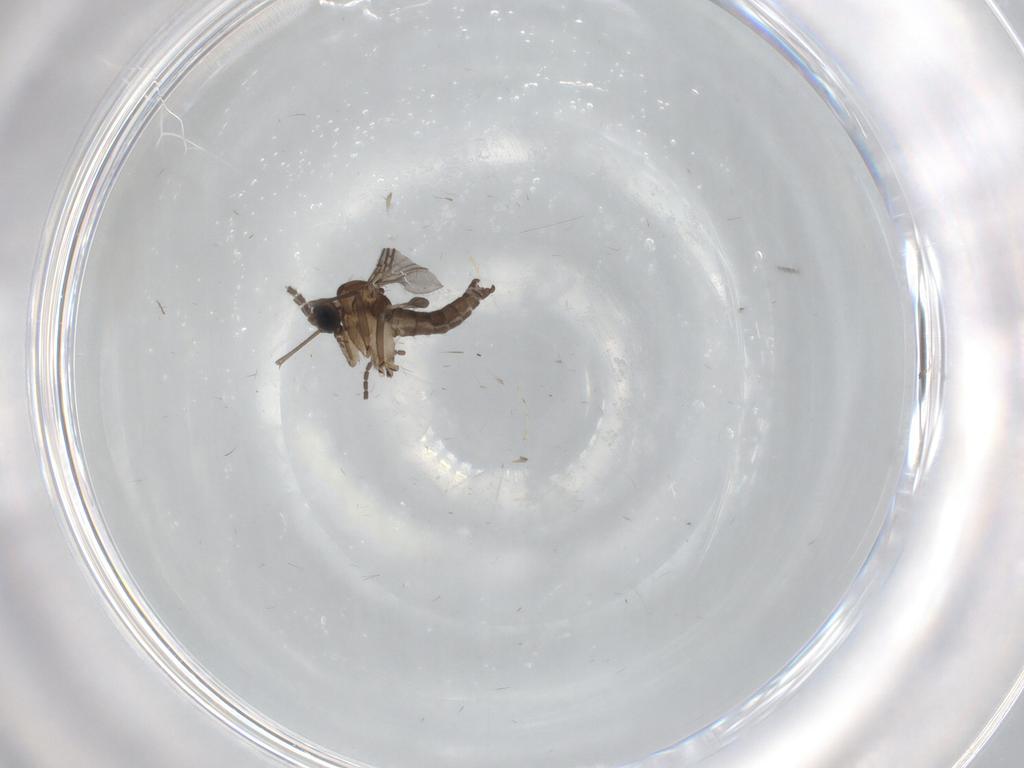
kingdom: Animalia
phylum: Arthropoda
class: Insecta
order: Diptera
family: Sciaridae
